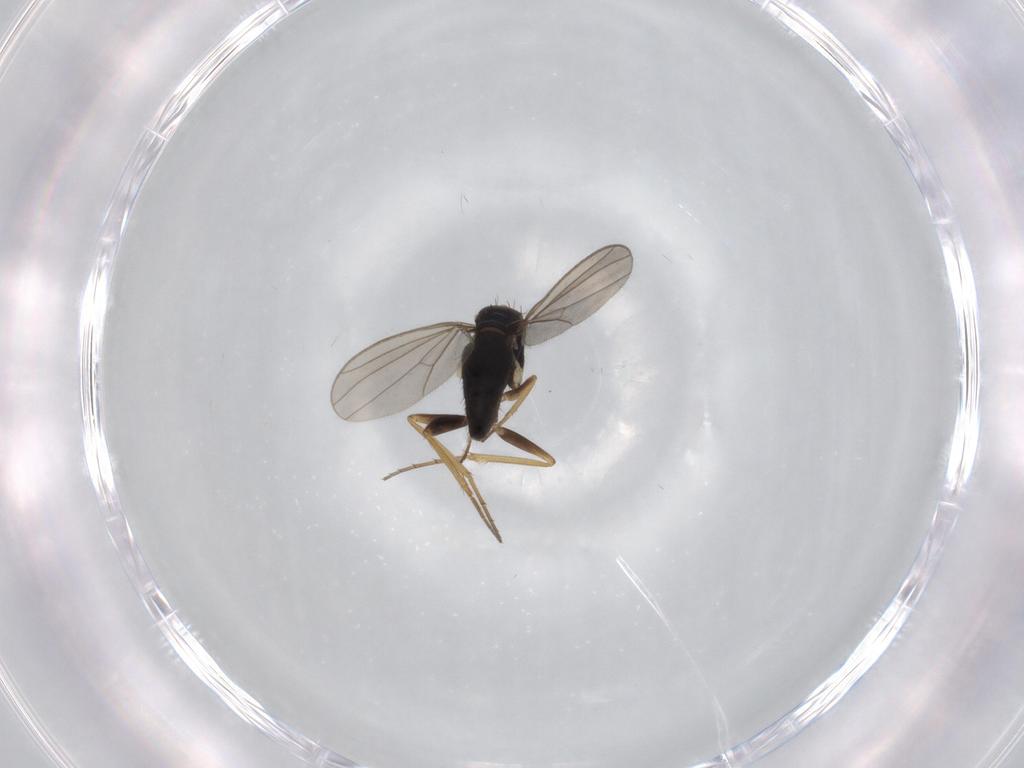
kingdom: Animalia
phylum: Arthropoda
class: Insecta
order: Diptera
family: Dolichopodidae
